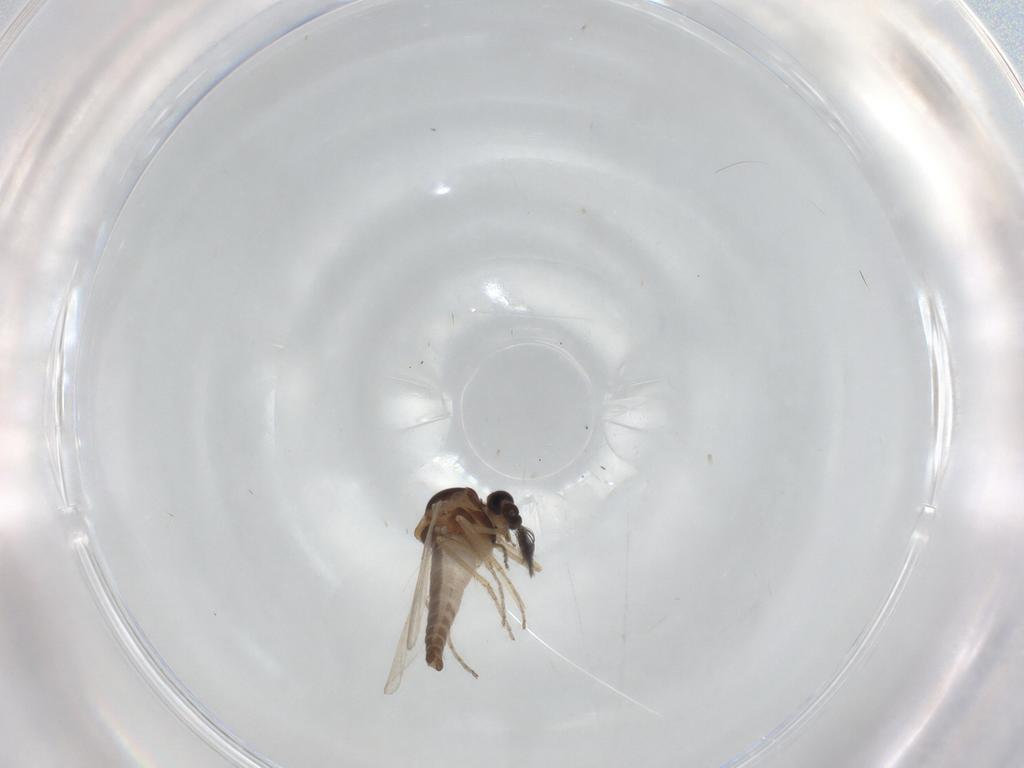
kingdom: Animalia
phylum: Arthropoda
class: Insecta
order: Diptera
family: Ceratopogonidae
